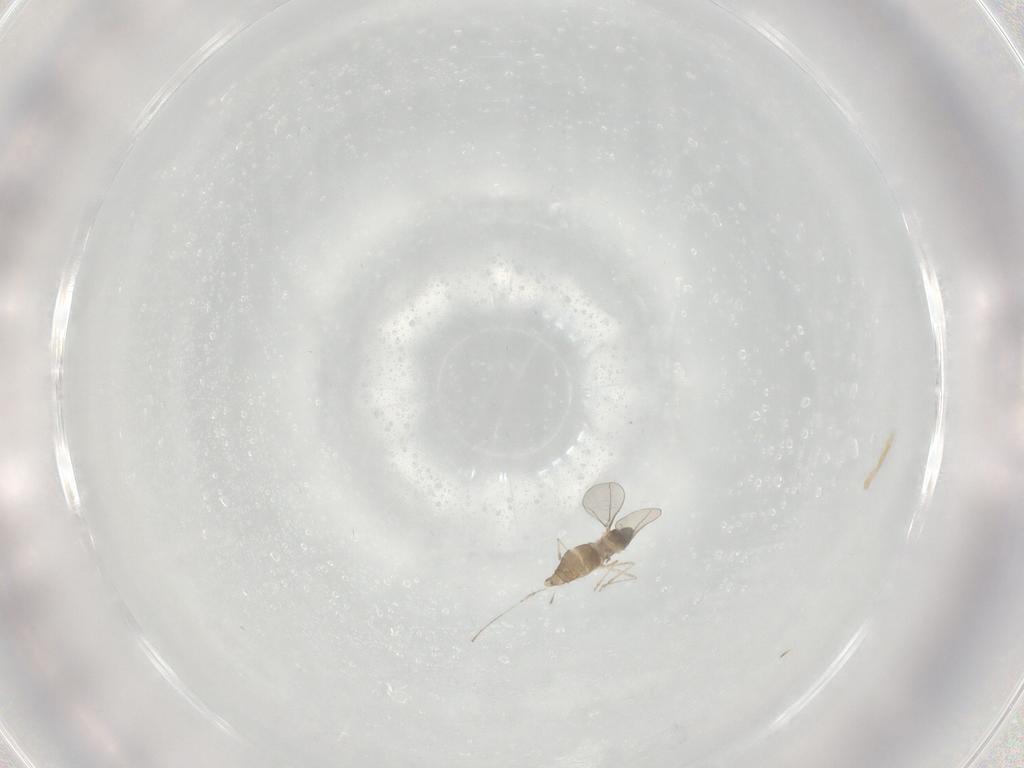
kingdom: Animalia
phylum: Arthropoda
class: Insecta
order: Diptera
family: Cecidomyiidae
